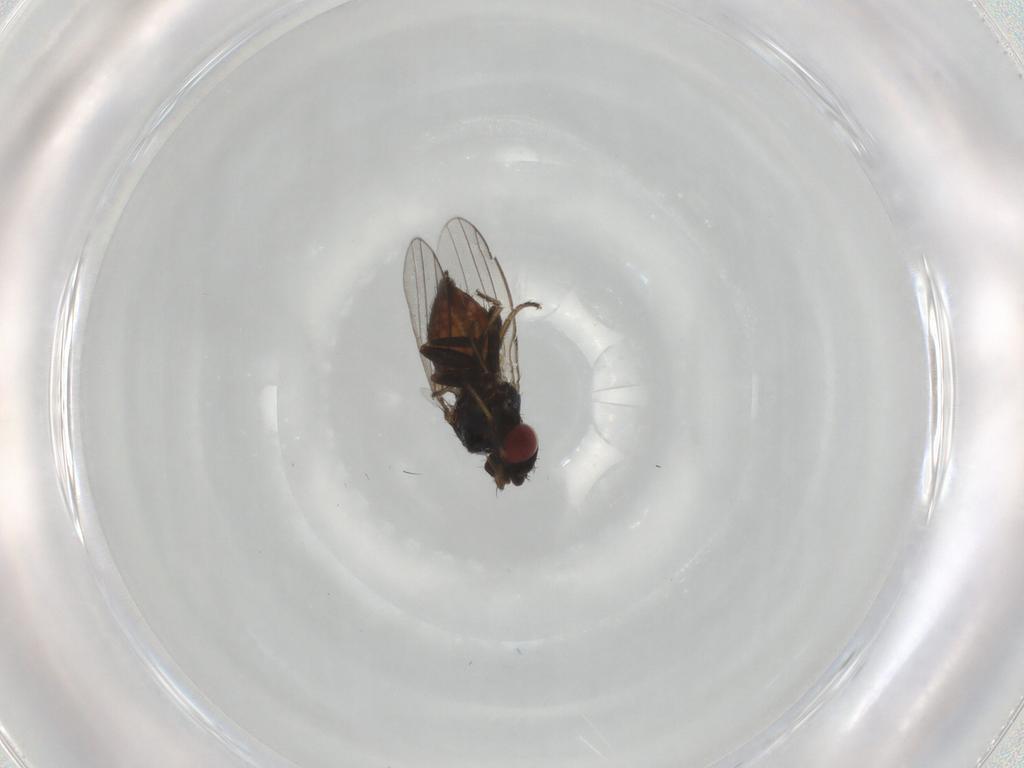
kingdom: Animalia
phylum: Arthropoda
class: Insecta
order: Diptera
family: Milichiidae
